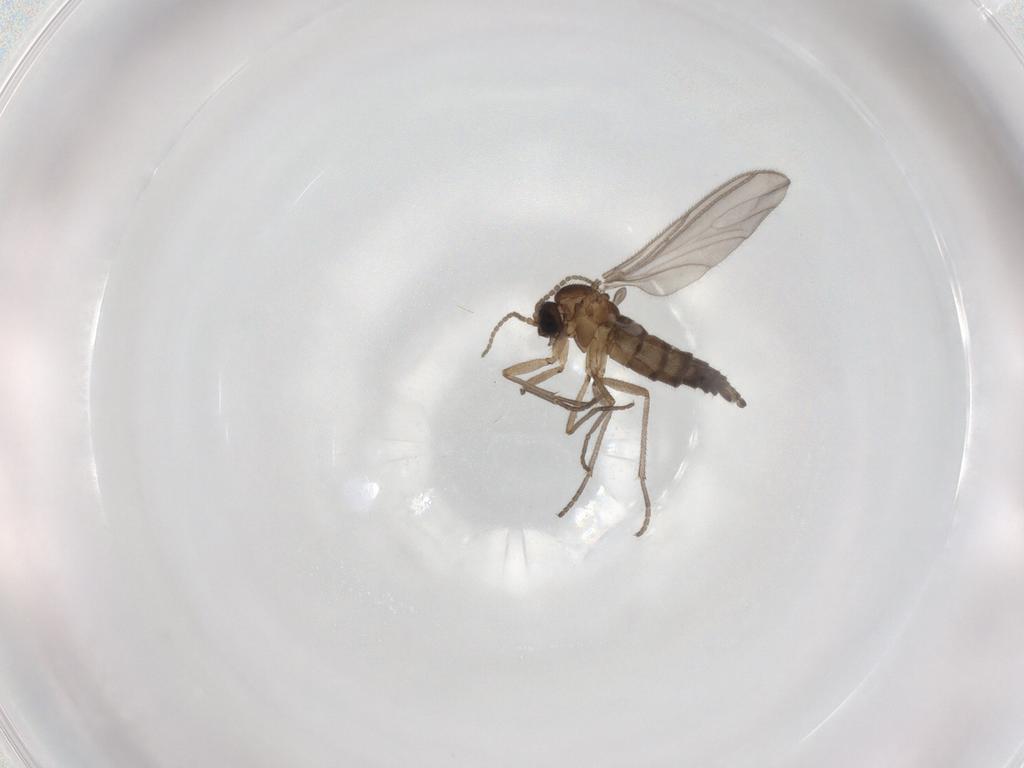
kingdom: Animalia
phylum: Arthropoda
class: Insecta
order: Diptera
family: Sciaridae
